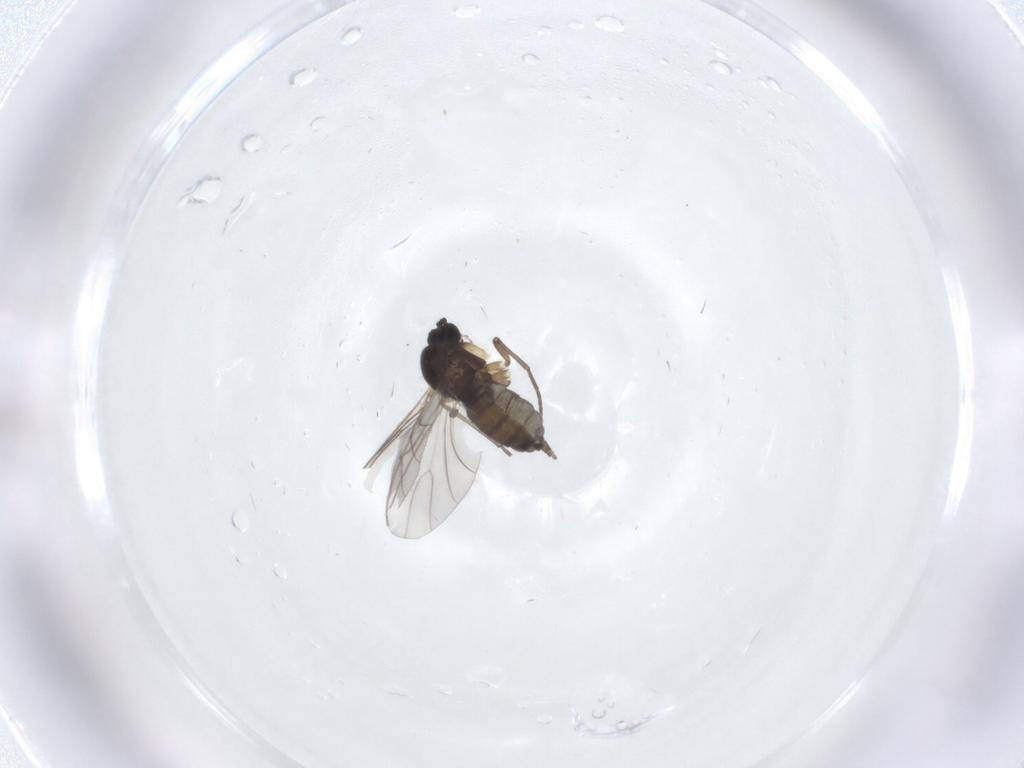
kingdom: Animalia
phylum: Arthropoda
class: Insecta
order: Diptera
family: Sciaridae
